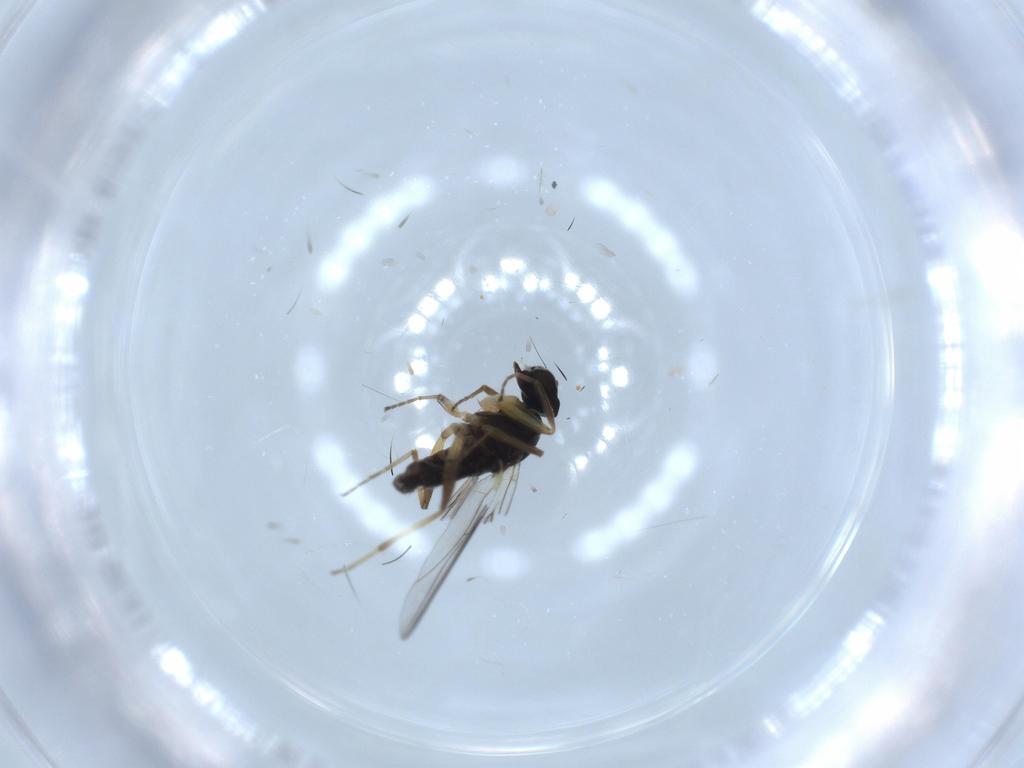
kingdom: Animalia
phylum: Arthropoda
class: Insecta
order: Diptera
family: Hybotidae
